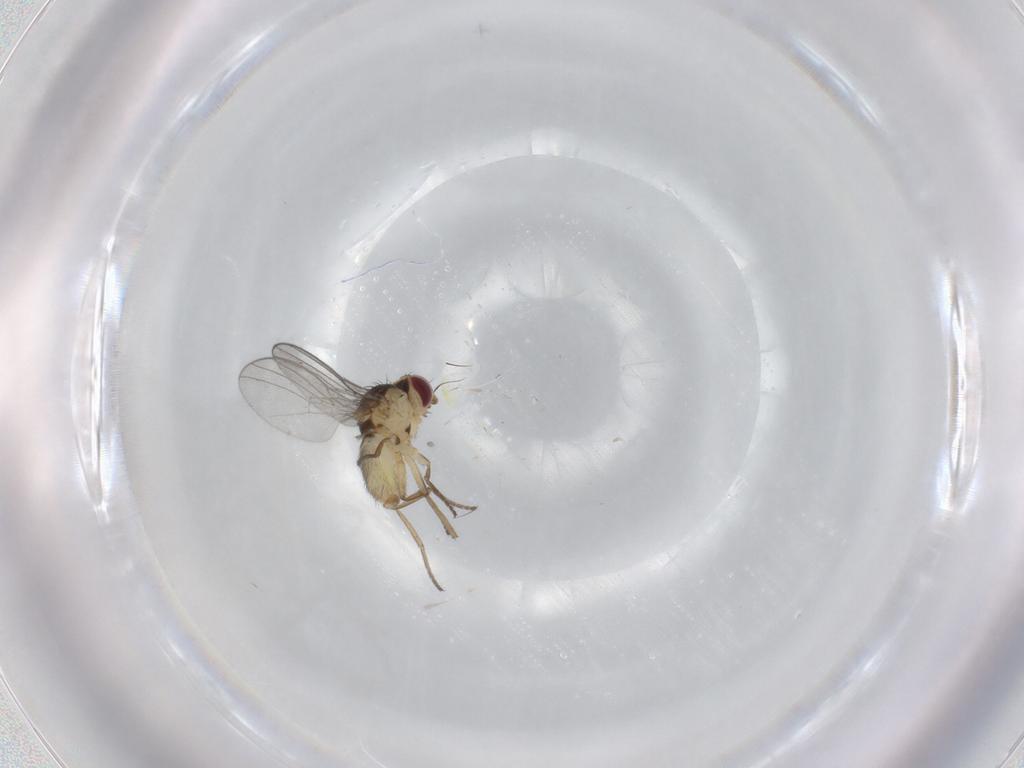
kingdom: Animalia
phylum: Arthropoda
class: Insecta
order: Diptera
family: Agromyzidae
